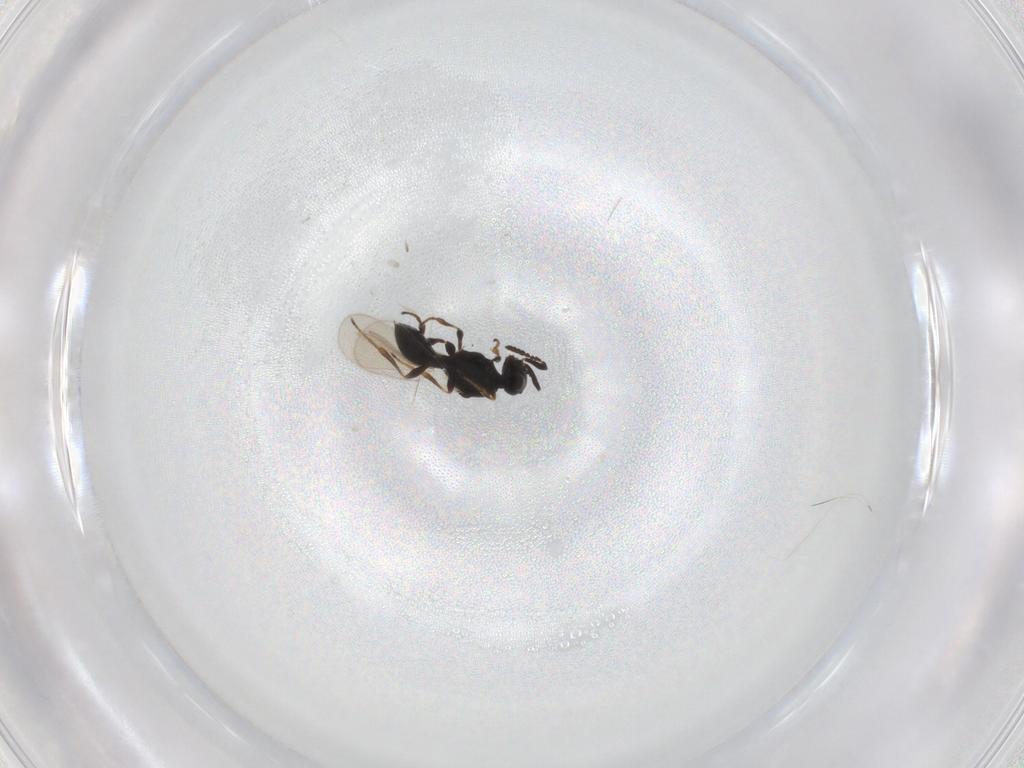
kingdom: Animalia
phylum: Arthropoda
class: Insecta
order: Hymenoptera
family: Platygastridae
